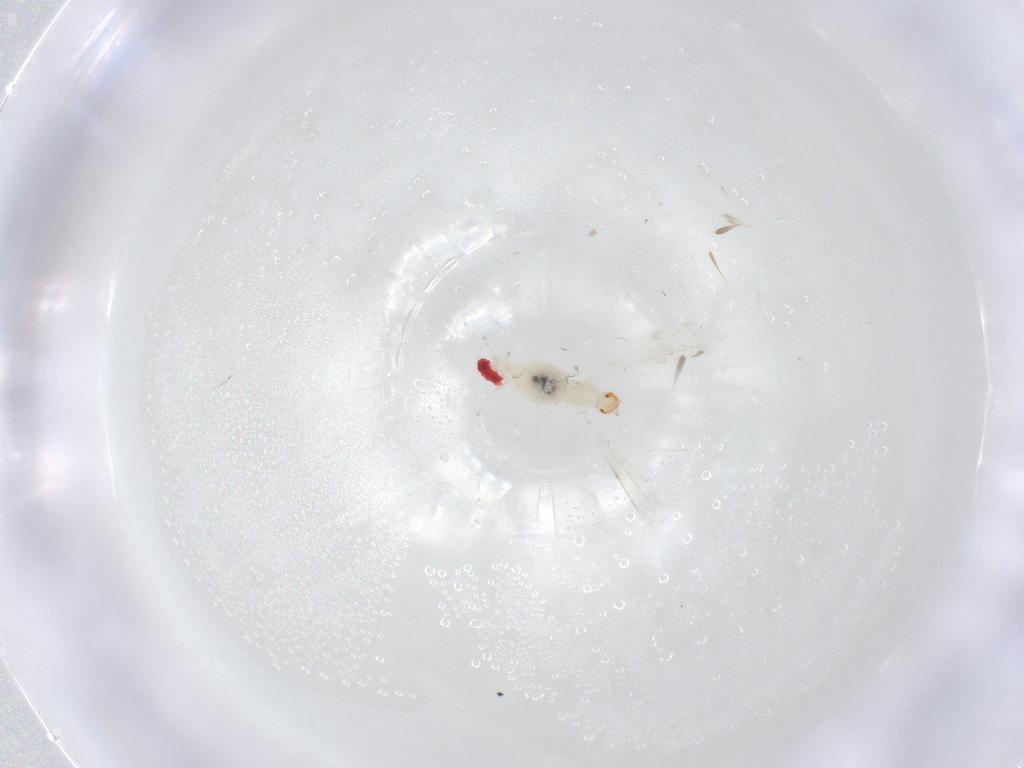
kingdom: Animalia
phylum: Arthropoda
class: Insecta
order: Diptera
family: Cecidomyiidae
